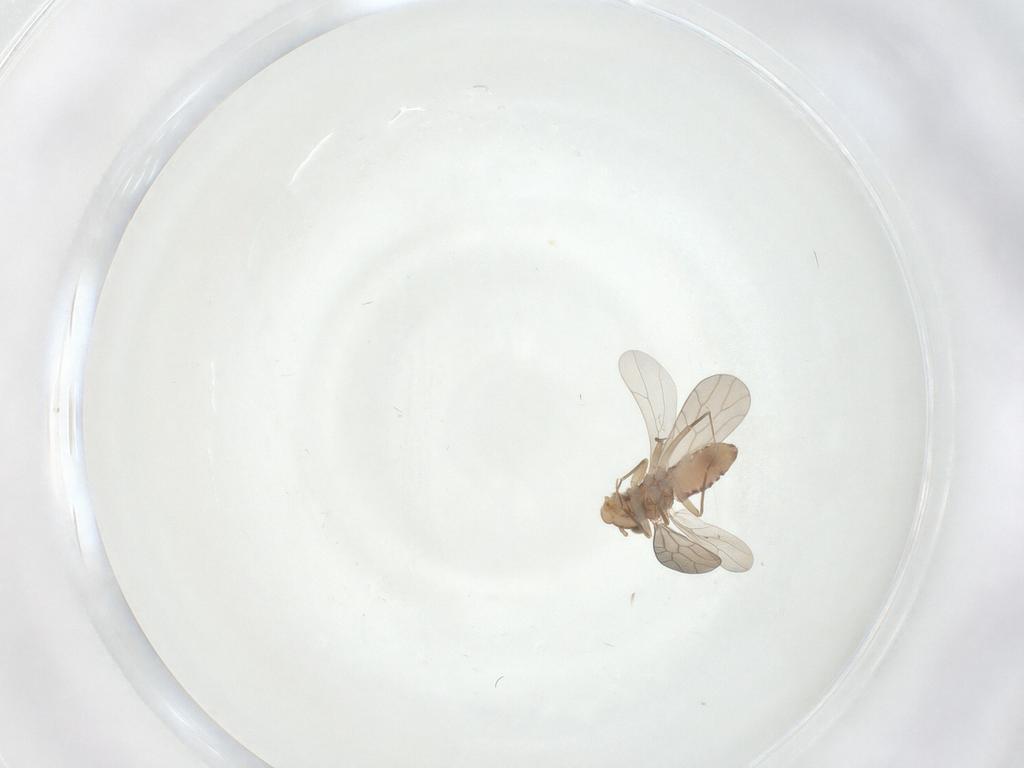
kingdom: Animalia
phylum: Arthropoda
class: Insecta
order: Psocodea
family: Lepidopsocidae
